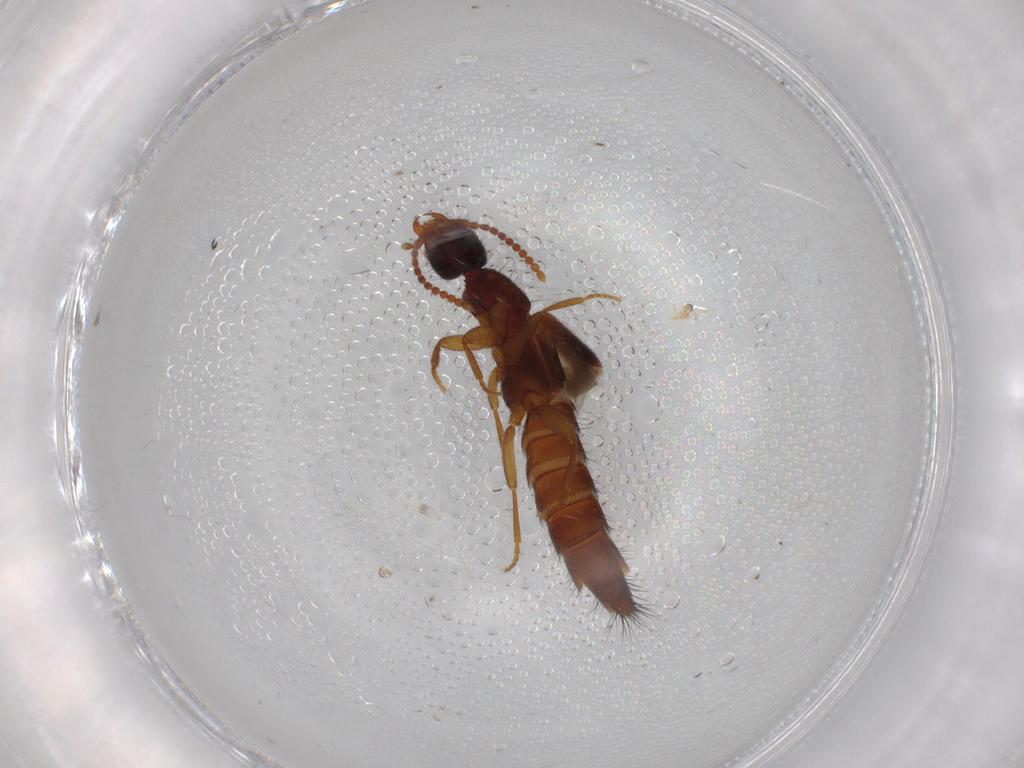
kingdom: Animalia
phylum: Arthropoda
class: Insecta
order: Coleoptera
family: Staphylinidae
